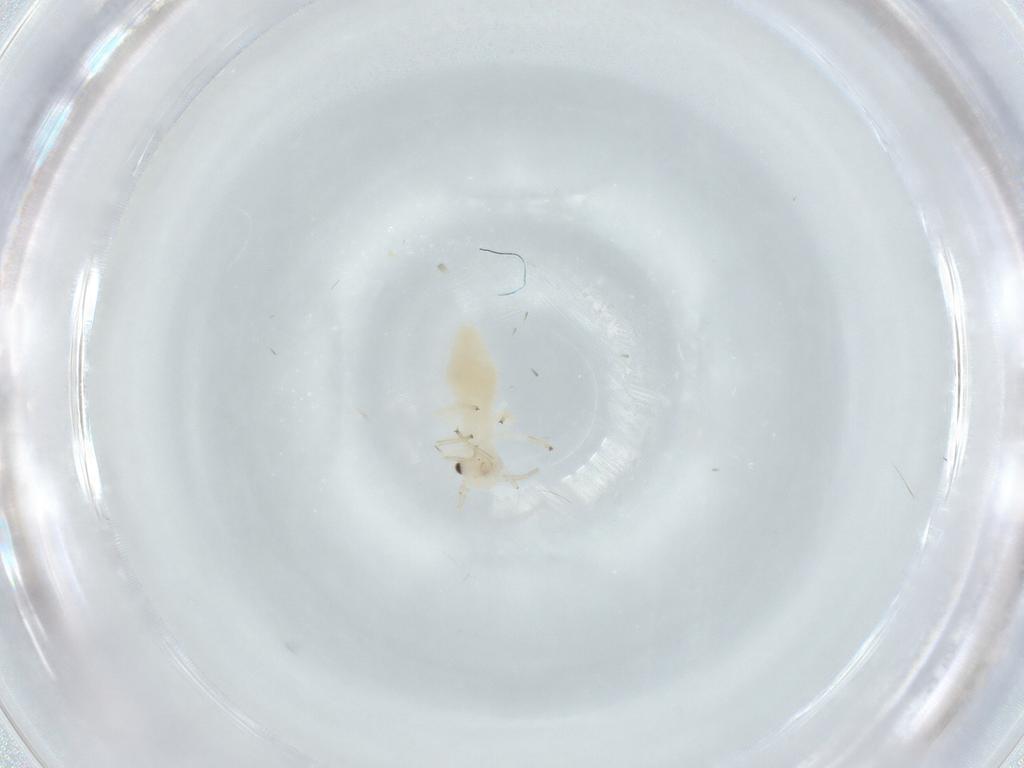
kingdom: Animalia
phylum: Arthropoda
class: Insecta
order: Psocodea
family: Caeciliusidae
